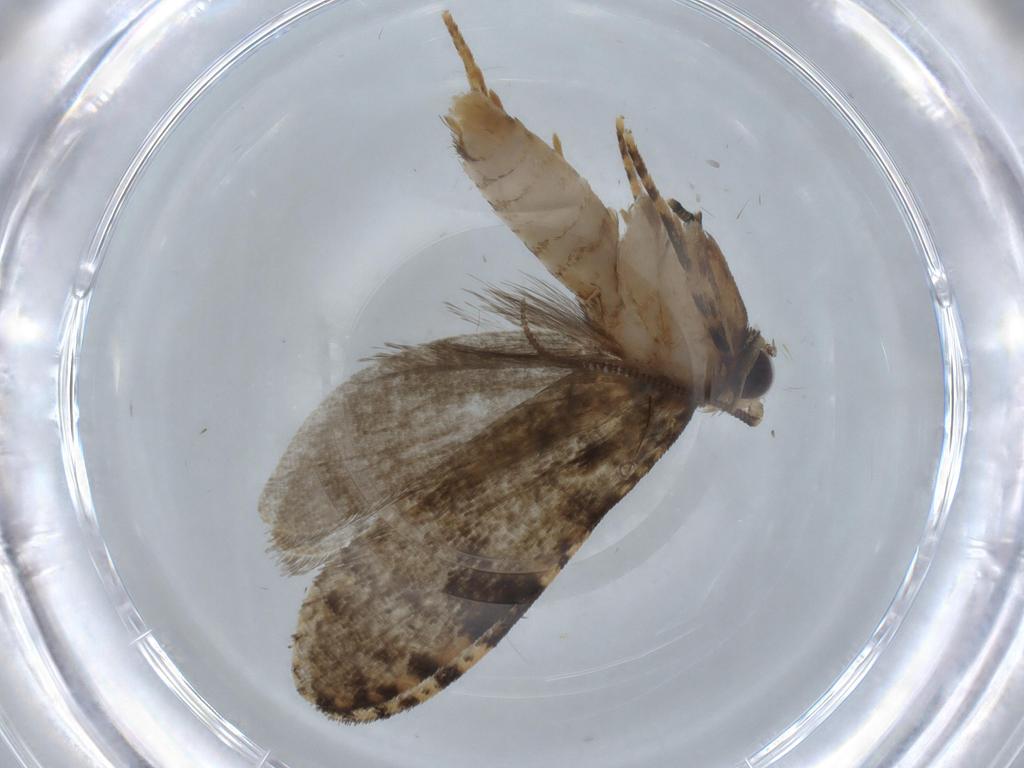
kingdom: Animalia
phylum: Arthropoda
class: Insecta
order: Lepidoptera
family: Tineidae
